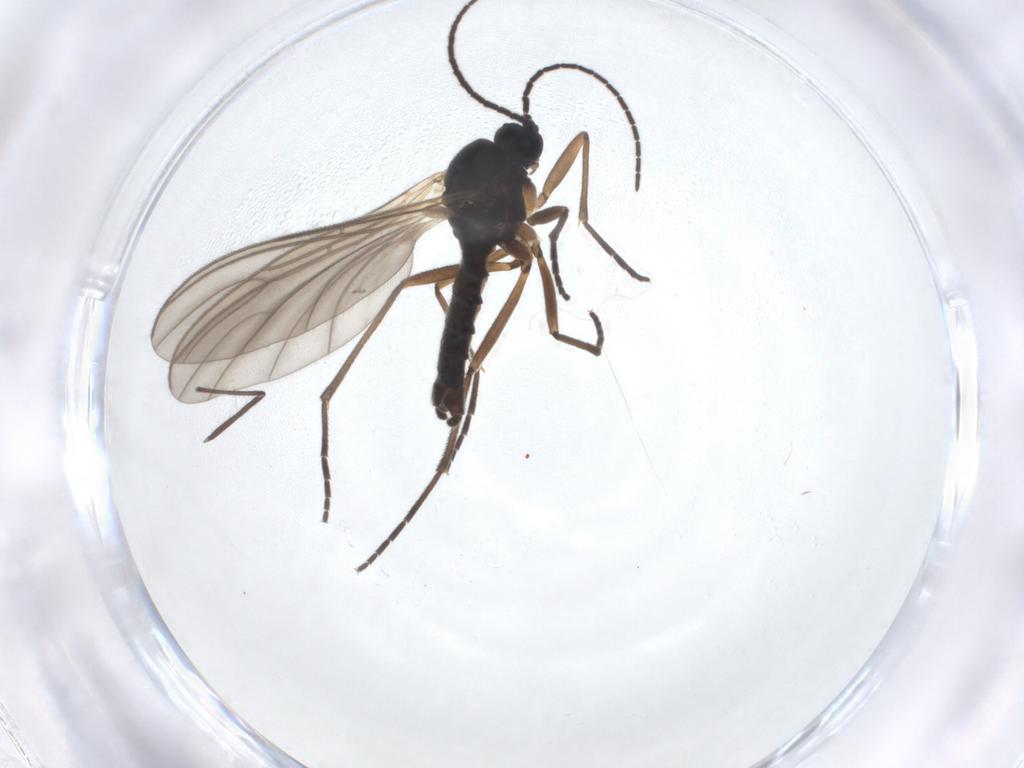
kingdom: Animalia
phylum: Arthropoda
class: Insecta
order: Diptera
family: Sciaridae
